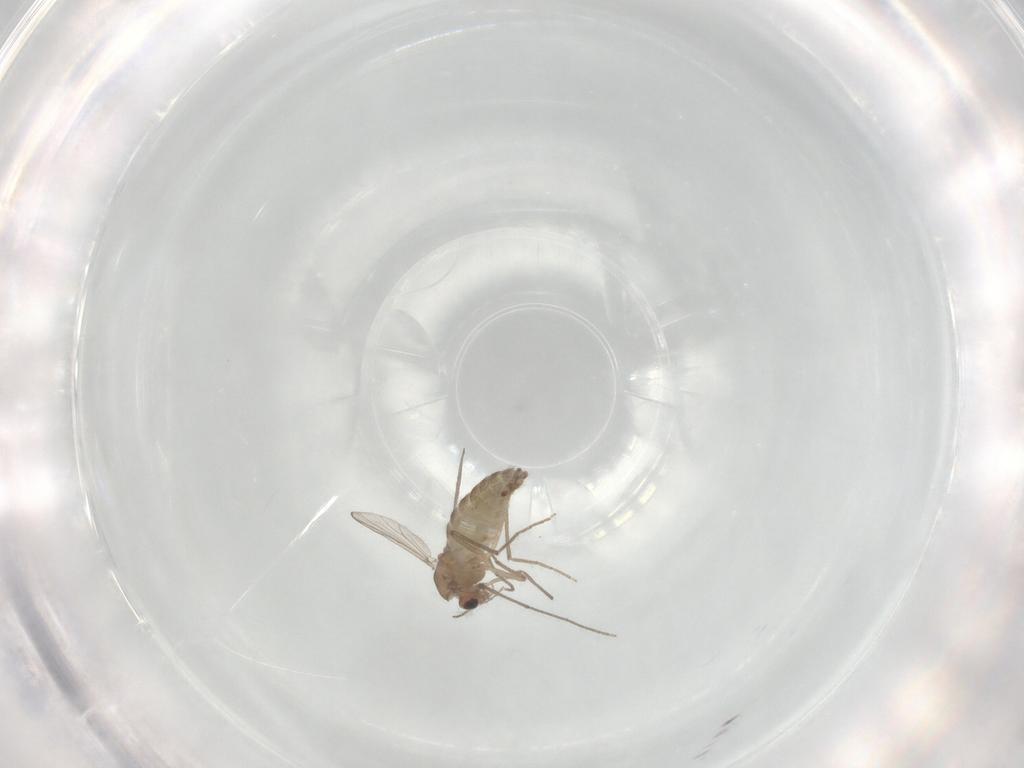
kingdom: Animalia
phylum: Arthropoda
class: Insecta
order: Diptera
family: Chironomidae
